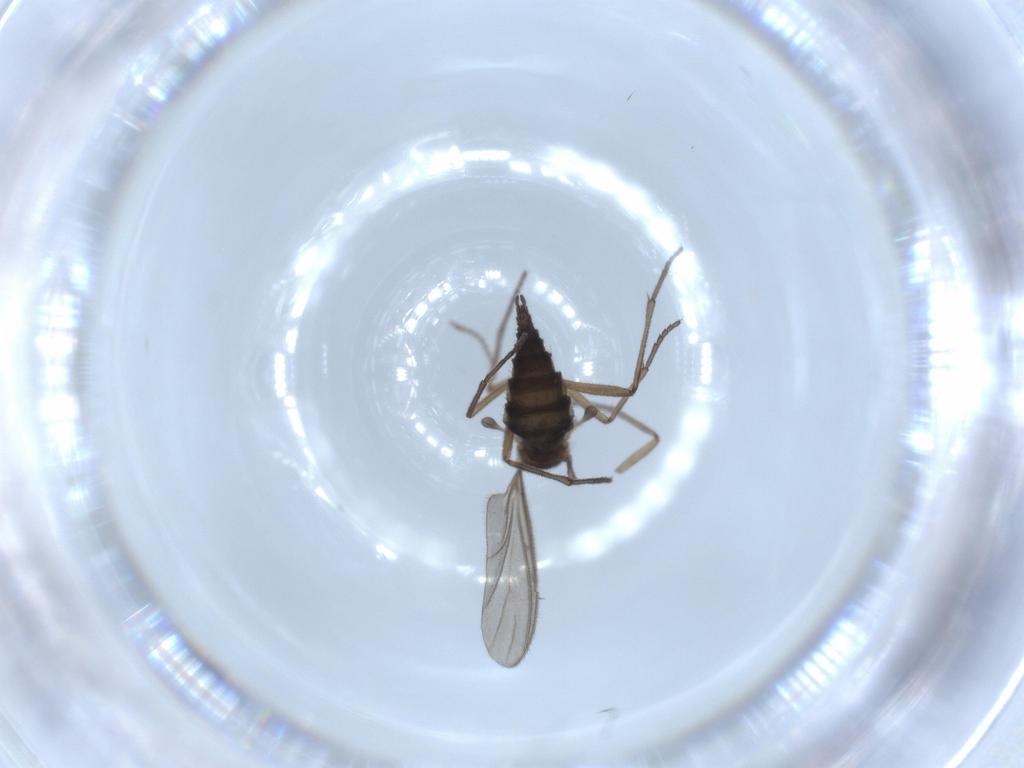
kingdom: Animalia
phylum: Arthropoda
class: Insecta
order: Diptera
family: Sciaridae
